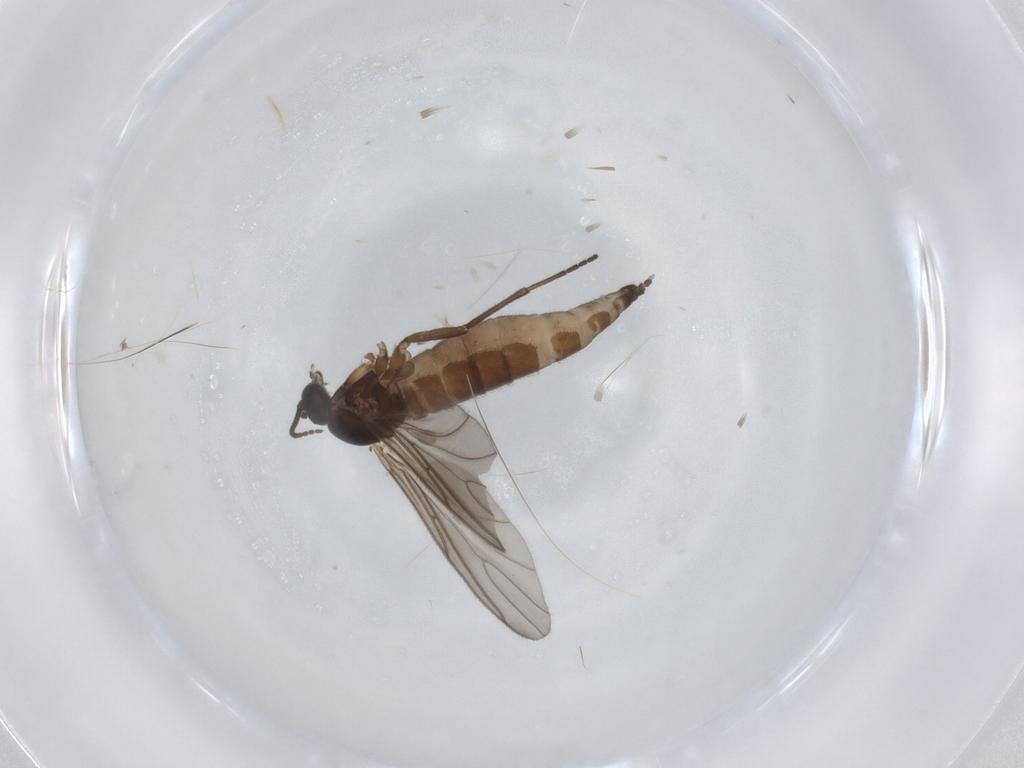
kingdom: Animalia
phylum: Arthropoda
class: Insecta
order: Diptera
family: Sciaridae
